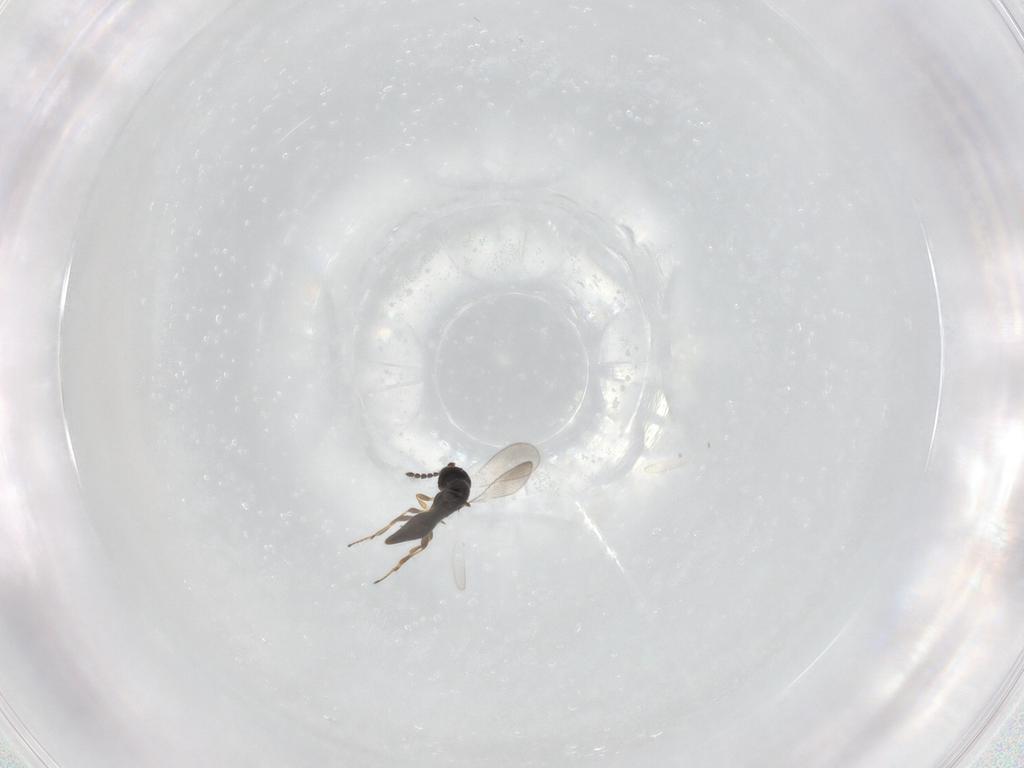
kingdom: Animalia
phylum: Arthropoda
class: Insecta
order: Hymenoptera
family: Platygastridae
